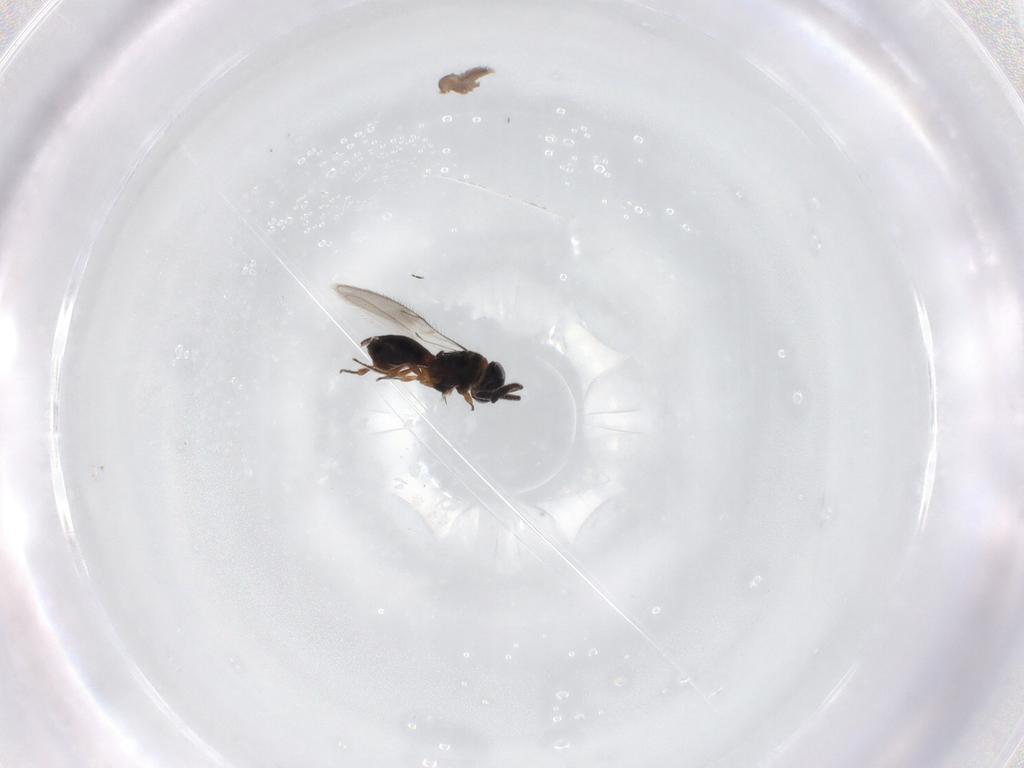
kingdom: Animalia
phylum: Arthropoda
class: Insecta
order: Hymenoptera
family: Scelionidae
